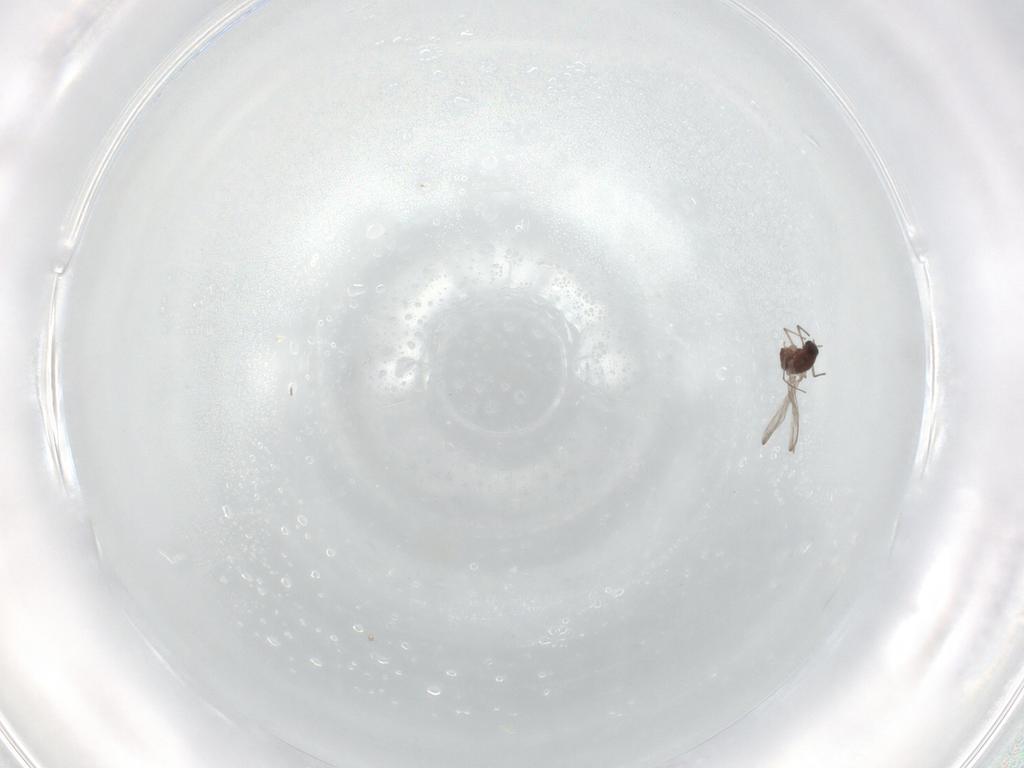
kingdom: Animalia
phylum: Arthropoda
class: Insecta
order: Diptera
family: Chironomidae
